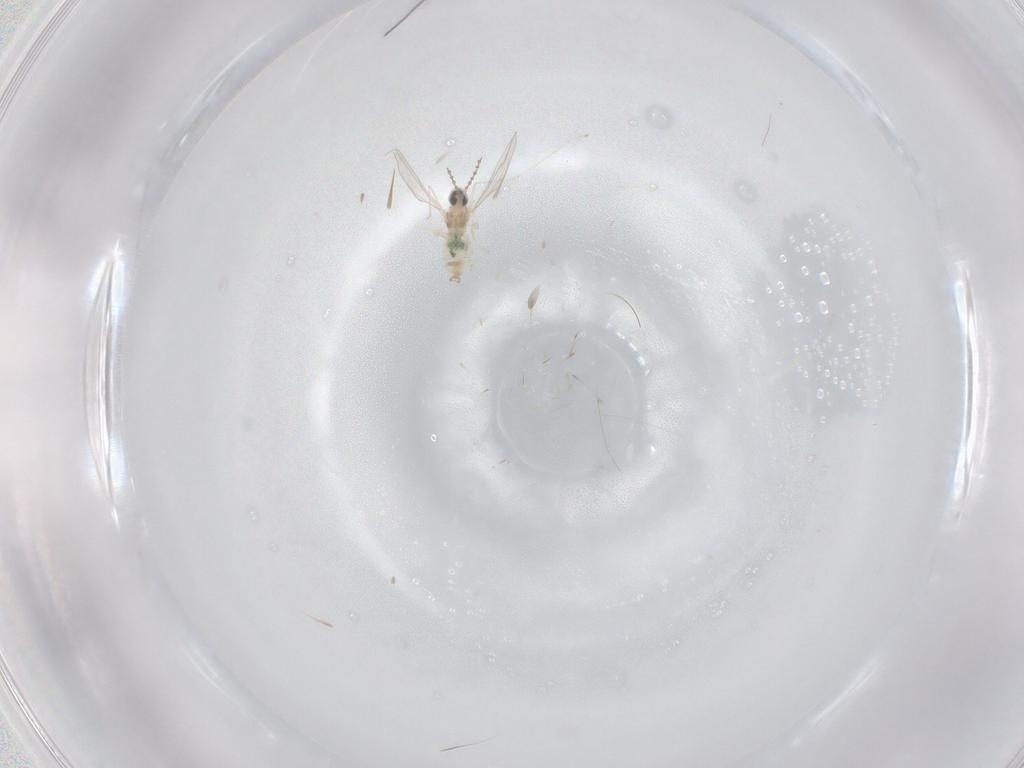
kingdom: Animalia
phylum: Arthropoda
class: Insecta
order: Diptera
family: Cecidomyiidae
